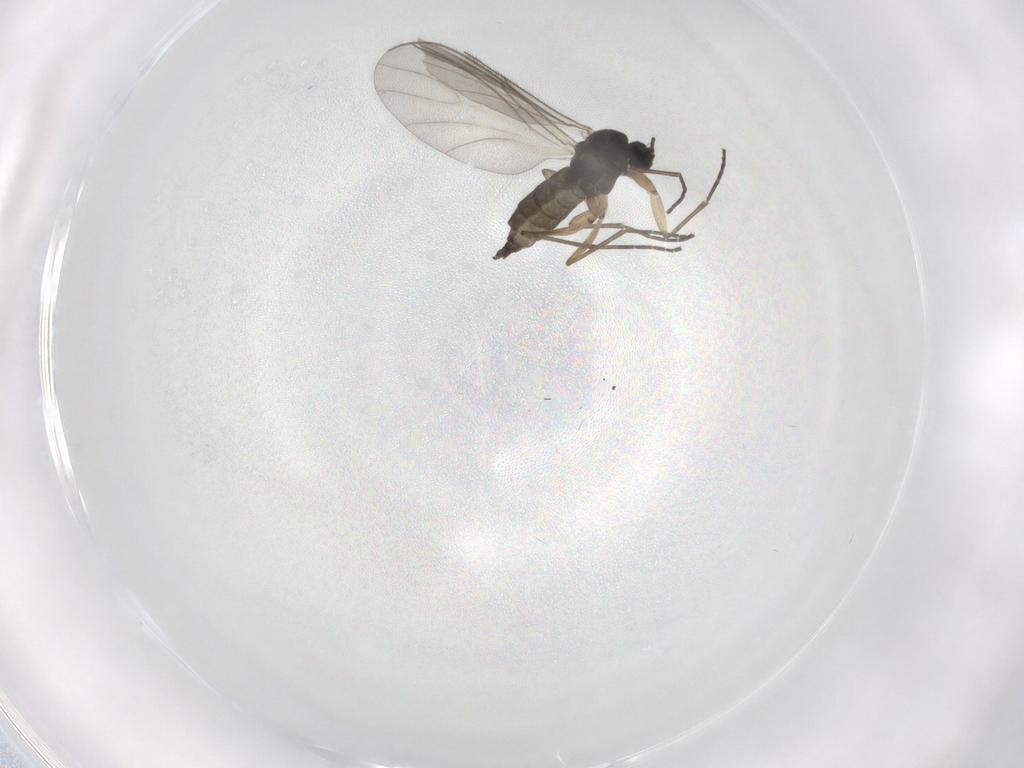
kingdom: Animalia
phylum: Arthropoda
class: Insecta
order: Diptera
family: Sciaridae
